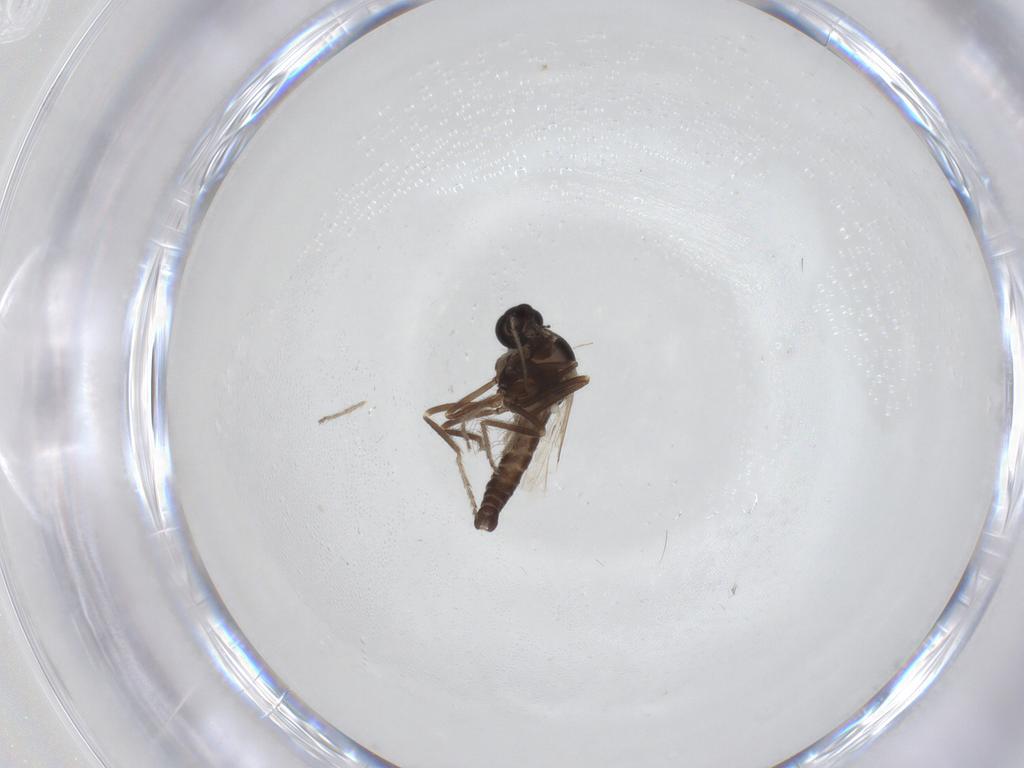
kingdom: Animalia
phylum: Arthropoda
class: Insecta
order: Diptera
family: Ceratopogonidae
